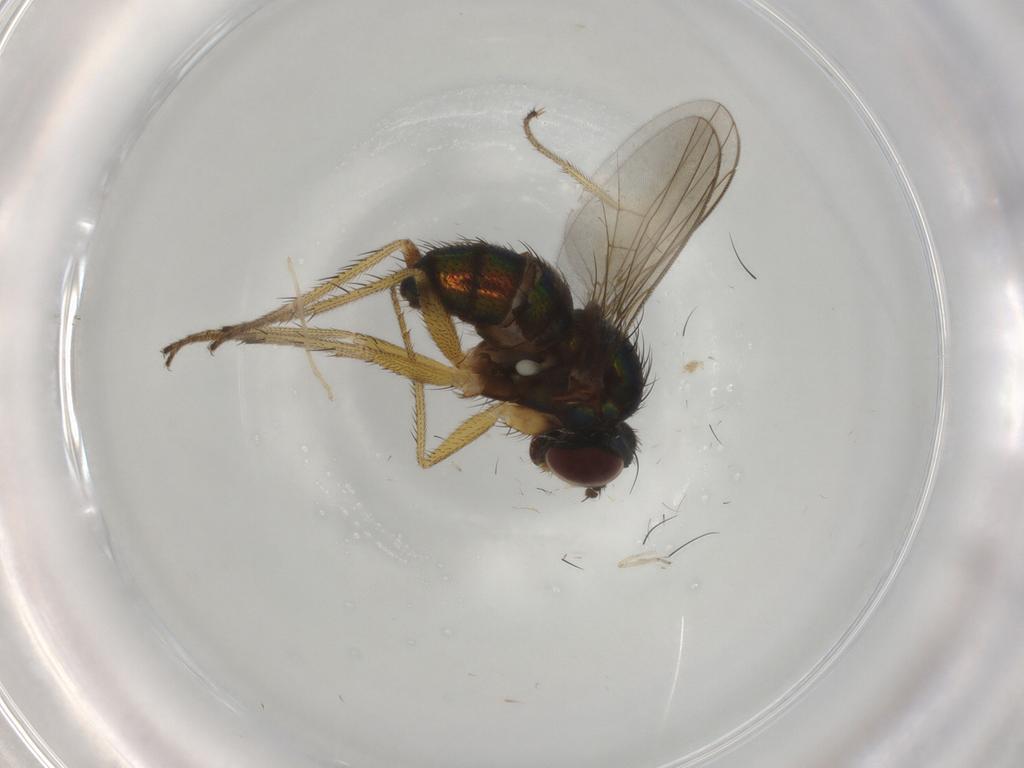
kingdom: Animalia
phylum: Arthropoda
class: Insecta
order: Diptera
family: Dolichopodidae
